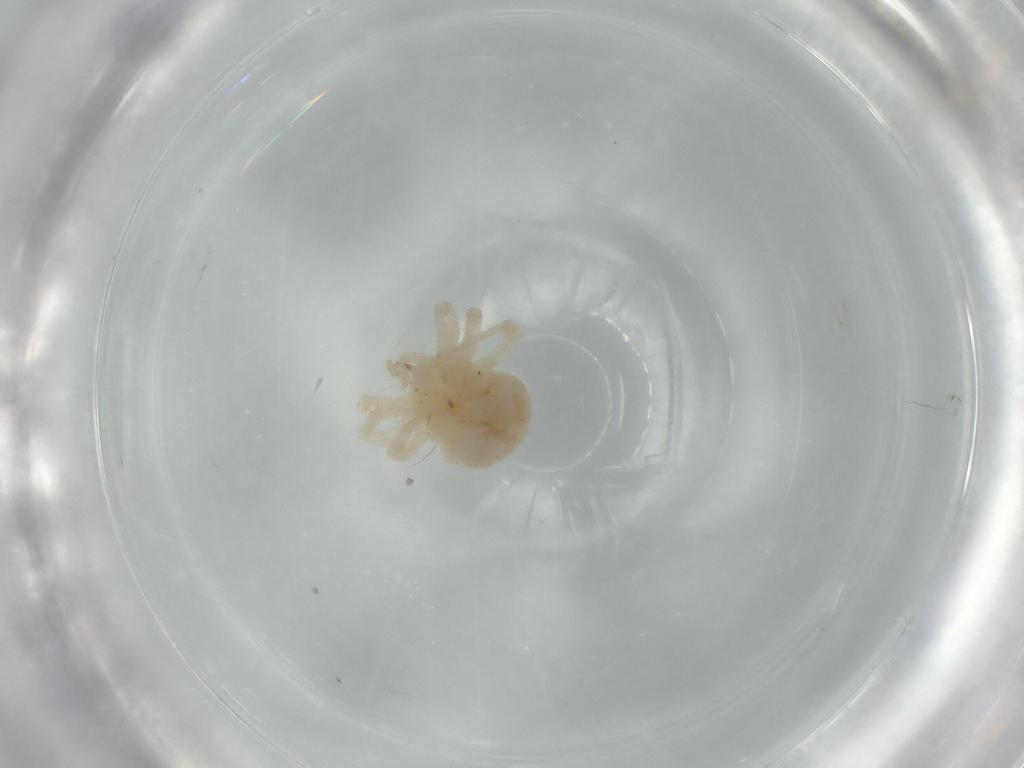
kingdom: Animalia
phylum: Arthropoda
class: Arachnida
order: Trombidiformes
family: Anystidae
